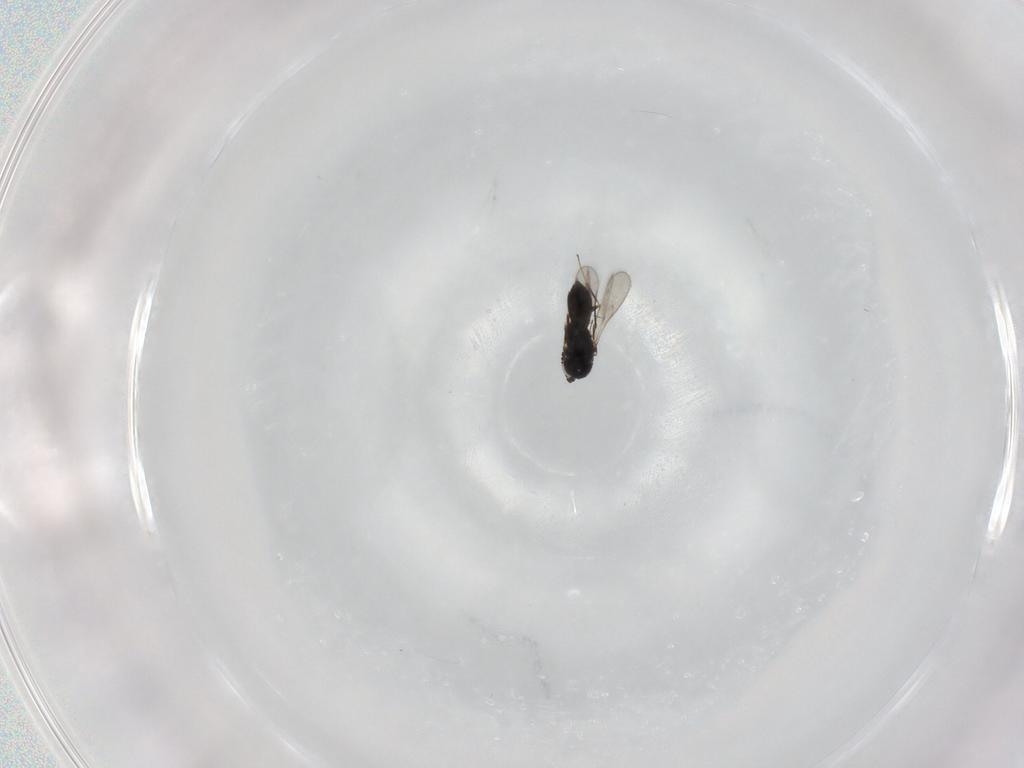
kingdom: Animalia
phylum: Arthropoda
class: Insecta
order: Hymenoptera
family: Scelionidae
